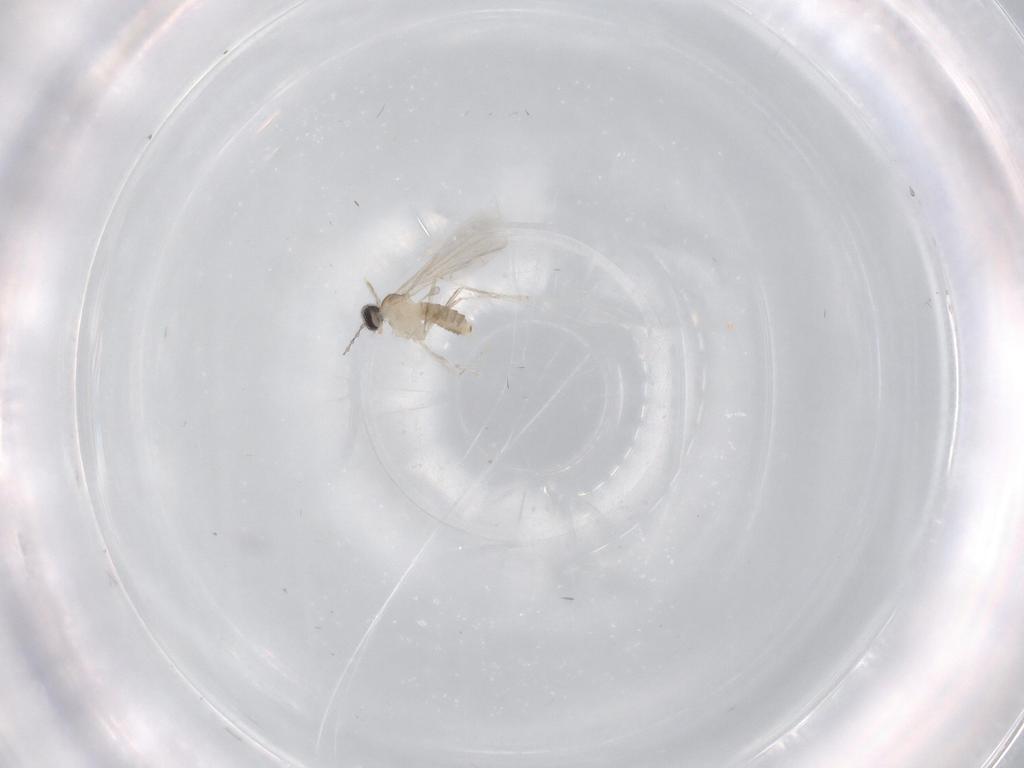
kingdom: Animalia
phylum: Arthropoda
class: Insecta
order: Diptera
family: Cecidomyiidae
